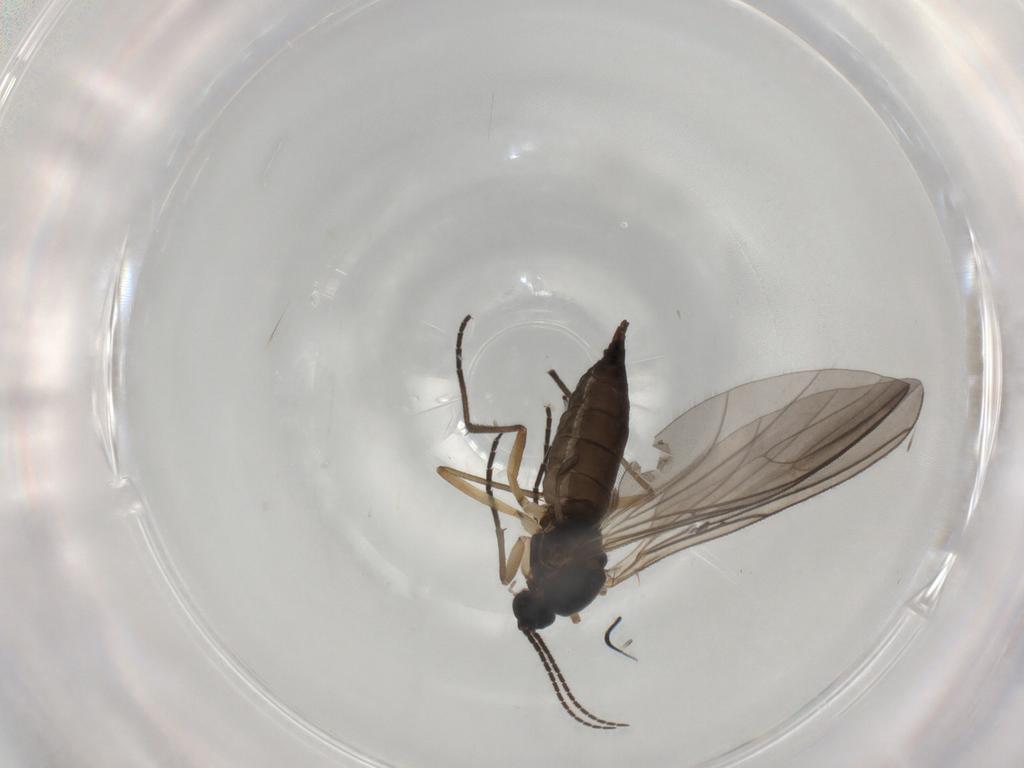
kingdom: Animalia
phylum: Arthropoda
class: Insecta
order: Diptera
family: Sciaridae
